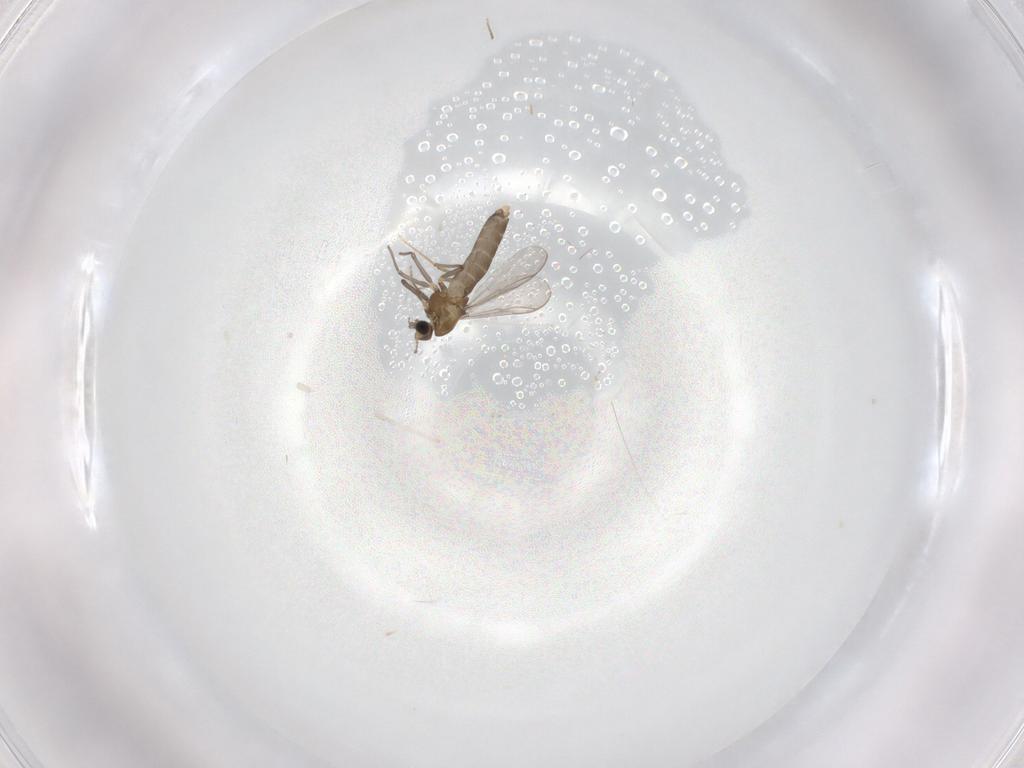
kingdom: Animalia
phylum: Arthropoda
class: Insecta
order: Diptera
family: Chironomidae
